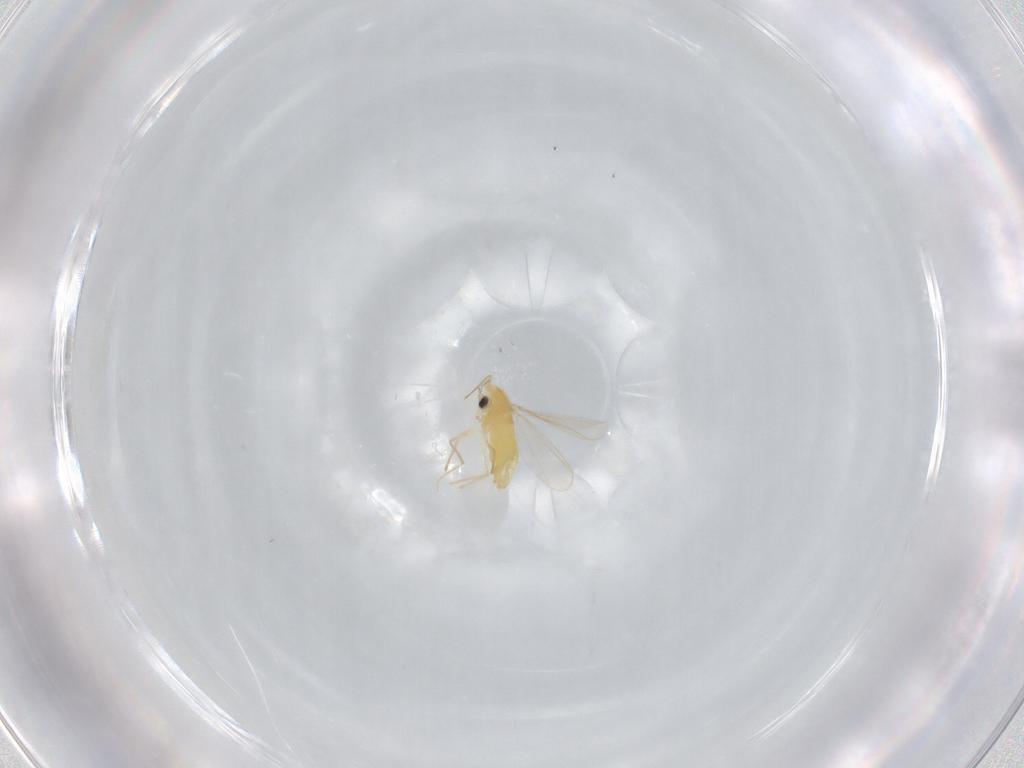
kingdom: Animalia
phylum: Arthropoda
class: Insecta
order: Diptera
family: Chironomidae
